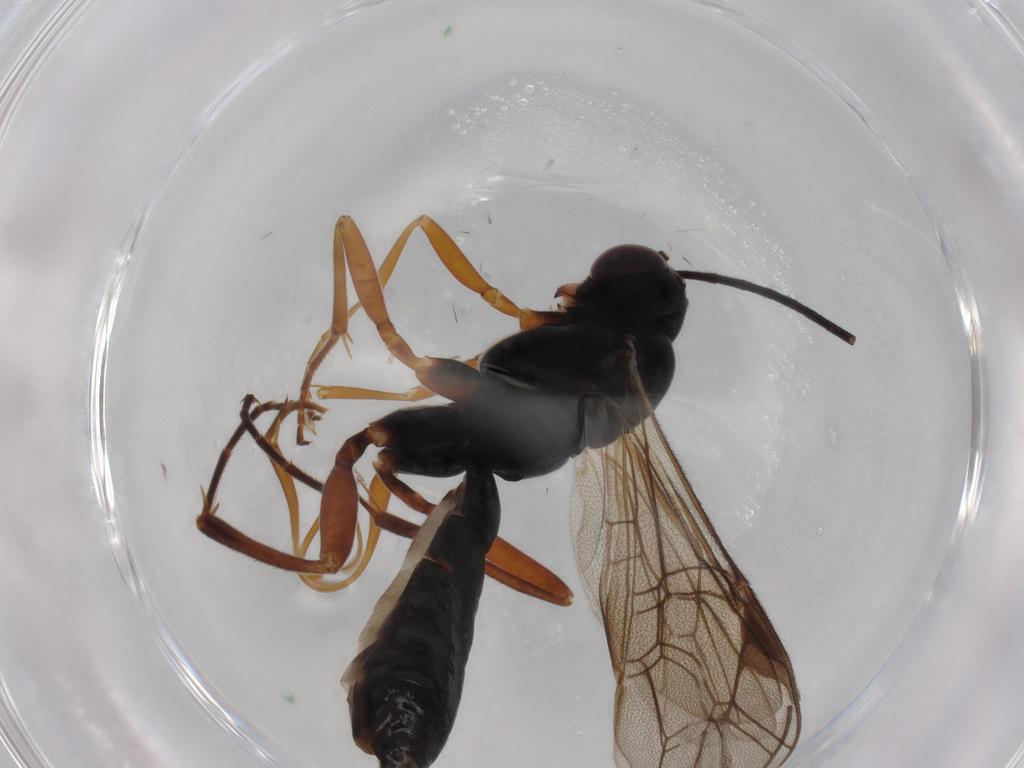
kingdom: Animalia
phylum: Arthropoda
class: Insecta
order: Hymenoptera
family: Ichneumonidae
